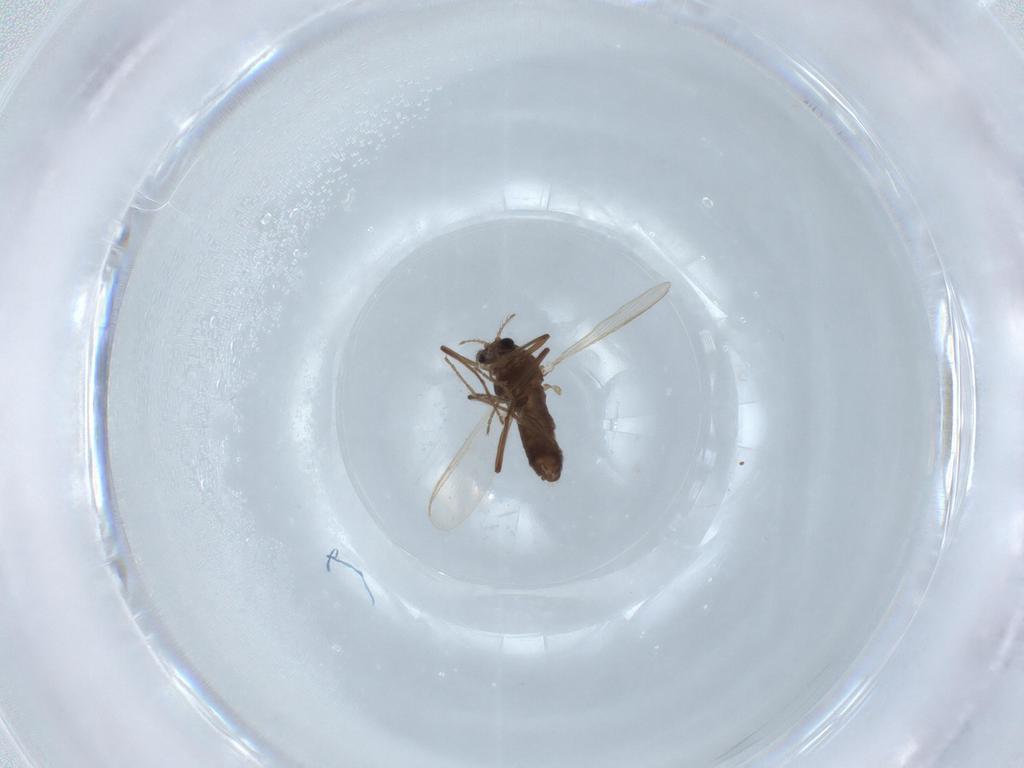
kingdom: Animalia
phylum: Arthropoda
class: Insecta
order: Diptera
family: Chironomidae
